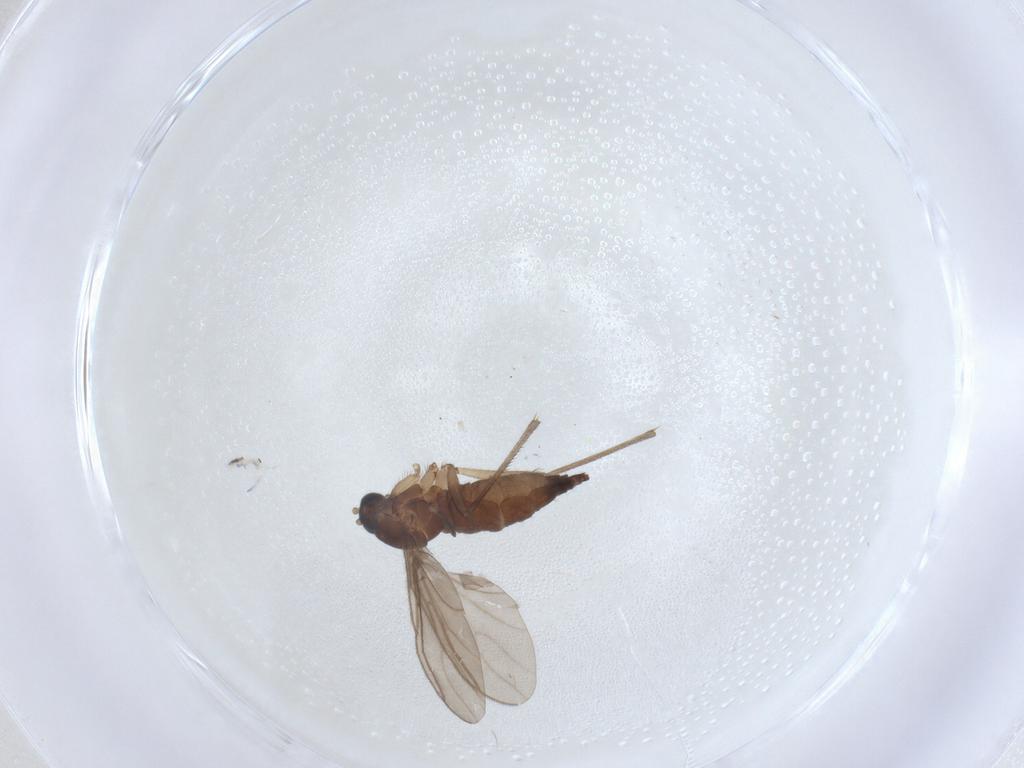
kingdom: Animalia
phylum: Arthropoda
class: Insecta
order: Diptera
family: Sciaridae
